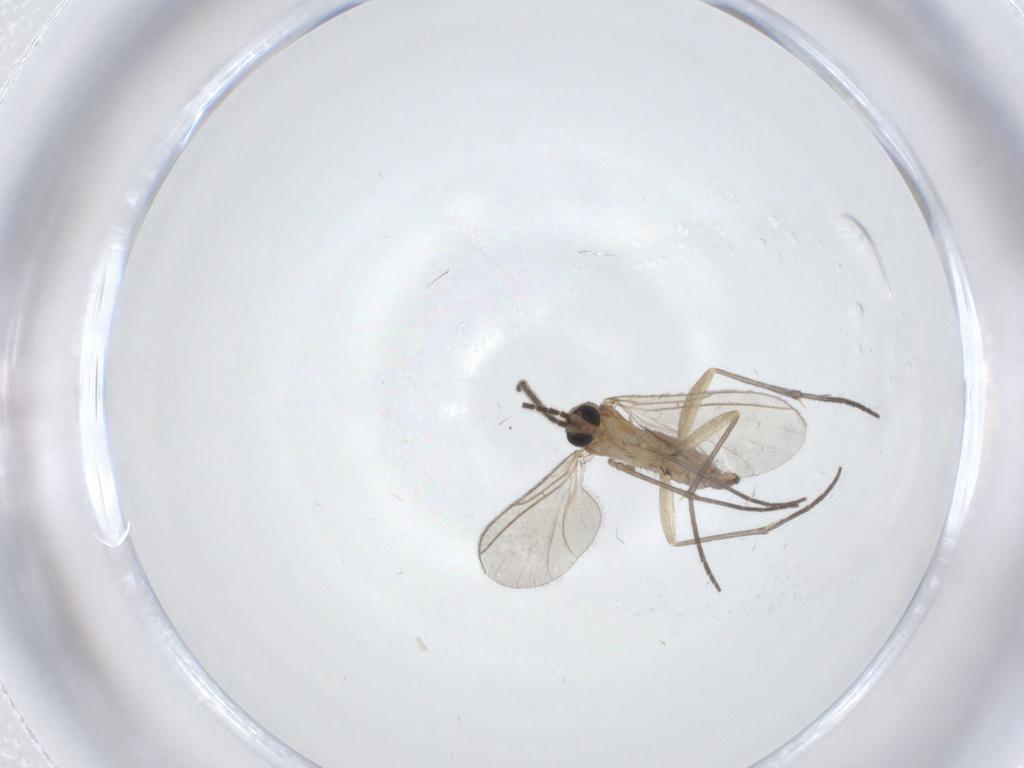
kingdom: Animalia
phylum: Arthropoda
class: Insecta
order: Diptera
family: Sciaridae
